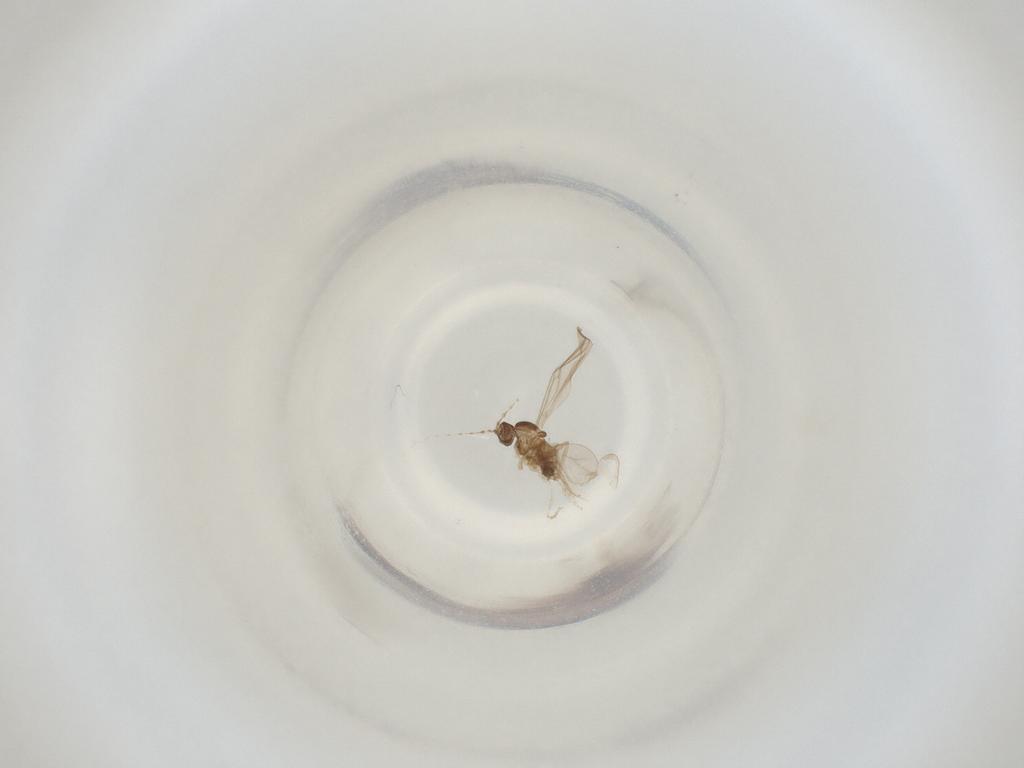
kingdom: Animalia
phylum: Arthropoda
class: Insecta
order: Diptera
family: Cecidomyiidae
